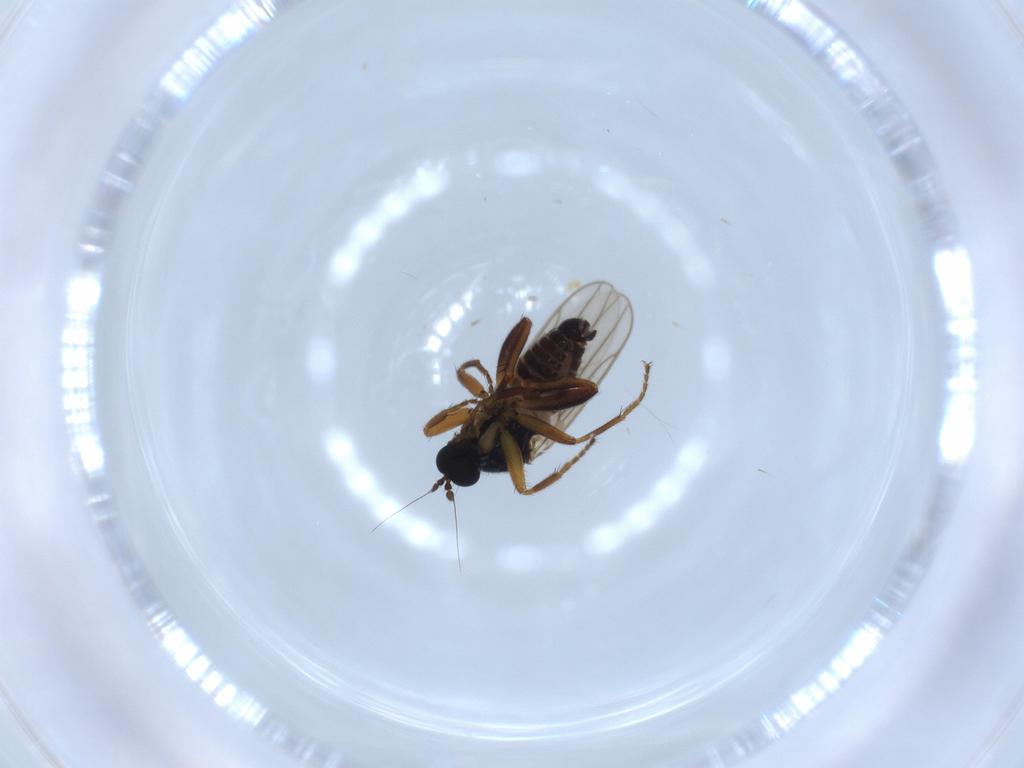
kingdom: Animalia
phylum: Arthropoda
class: Insecta
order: Diptera
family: Hybotidae
